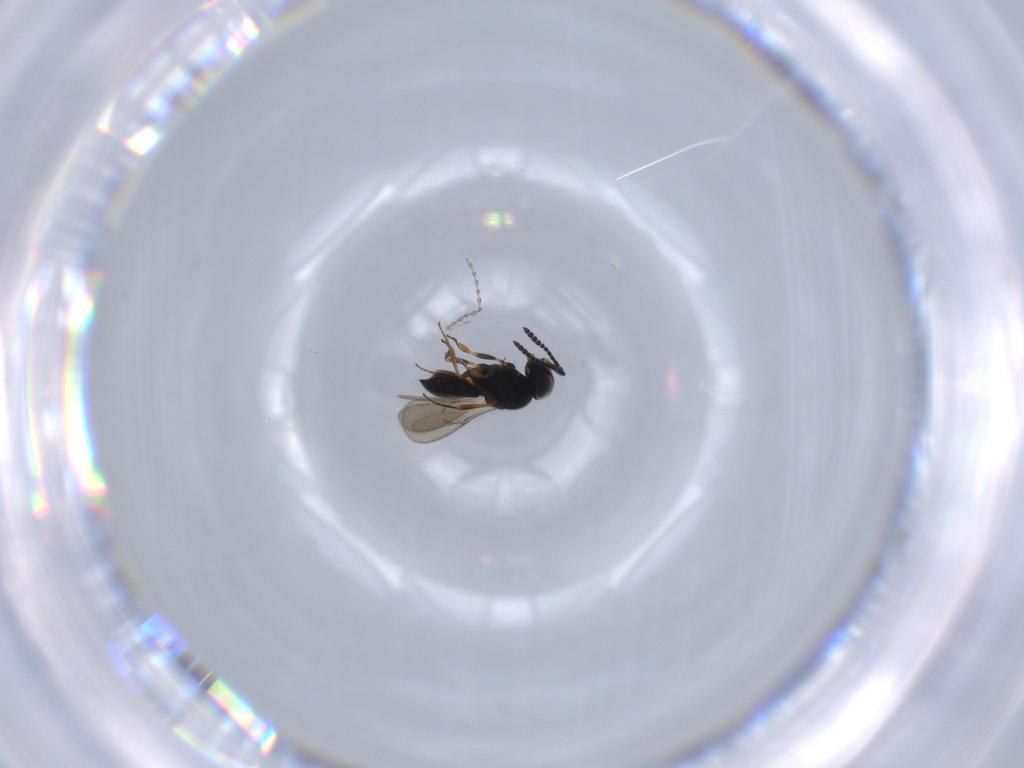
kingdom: Animalia
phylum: Arthropoda
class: Insecta
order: Hymenoptera
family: Scelionidae
